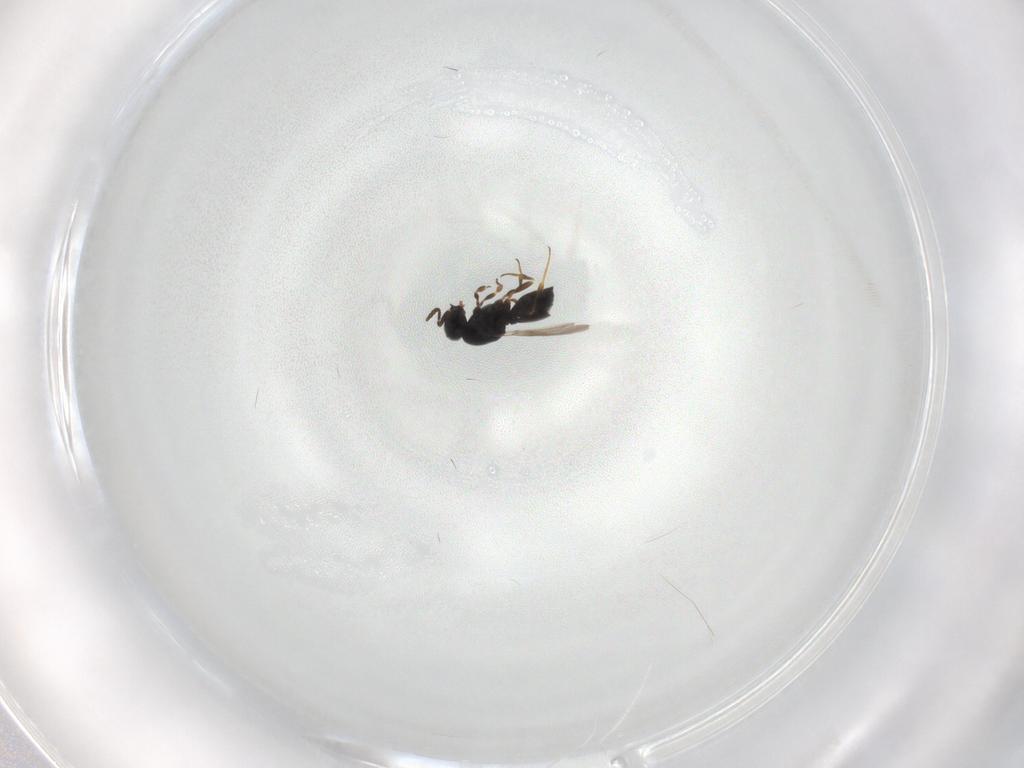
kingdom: Animalia
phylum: Arthropoda
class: Insecta
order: Hymenoptera
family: Scelionidae
